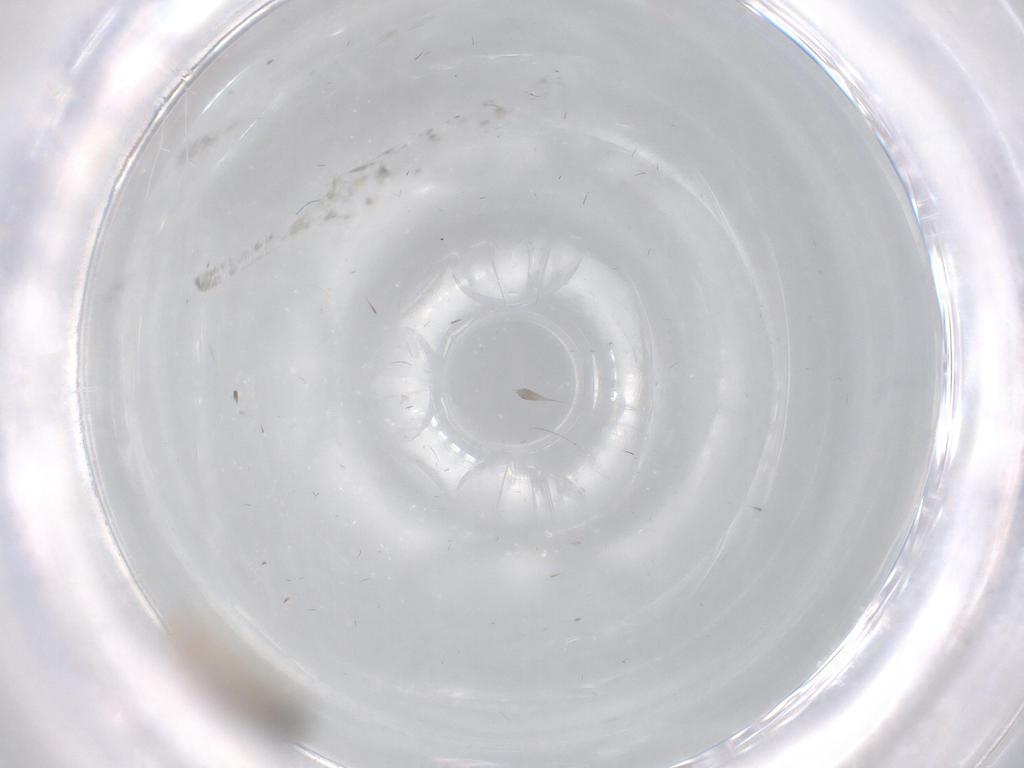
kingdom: Animalia
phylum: Arthropoda
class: Insecta
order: Diptera
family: Cecidomyiidae
